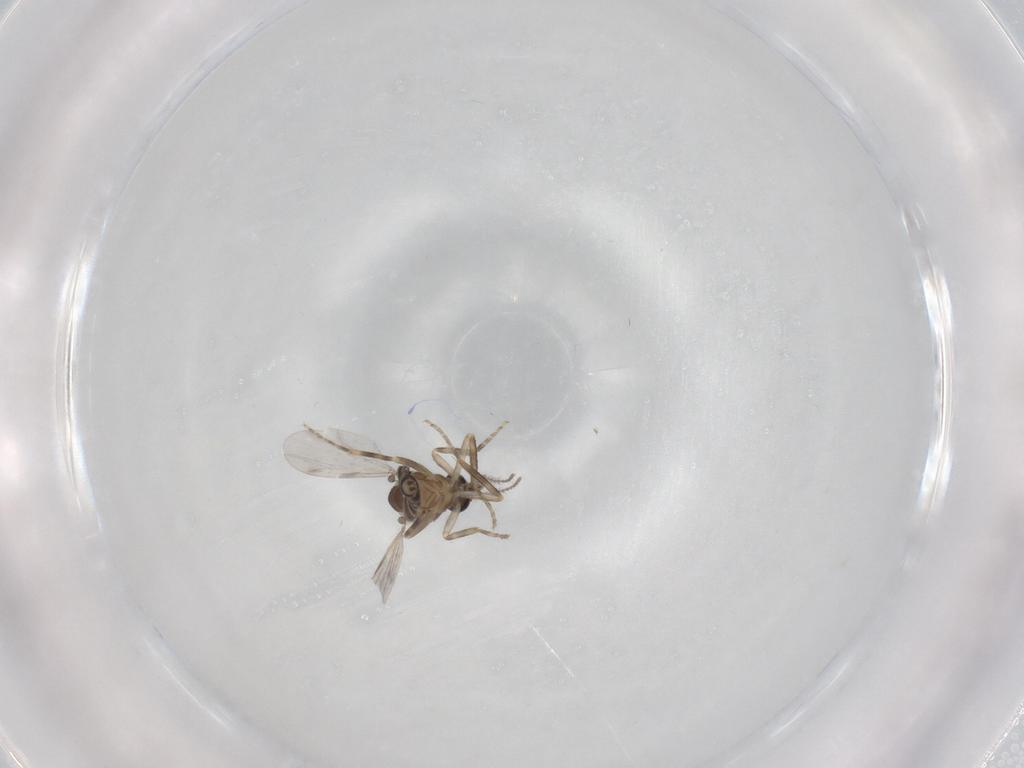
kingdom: Animalia
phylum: Arthropoda
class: Insecta
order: Diptera
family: Ceratopogonidae
